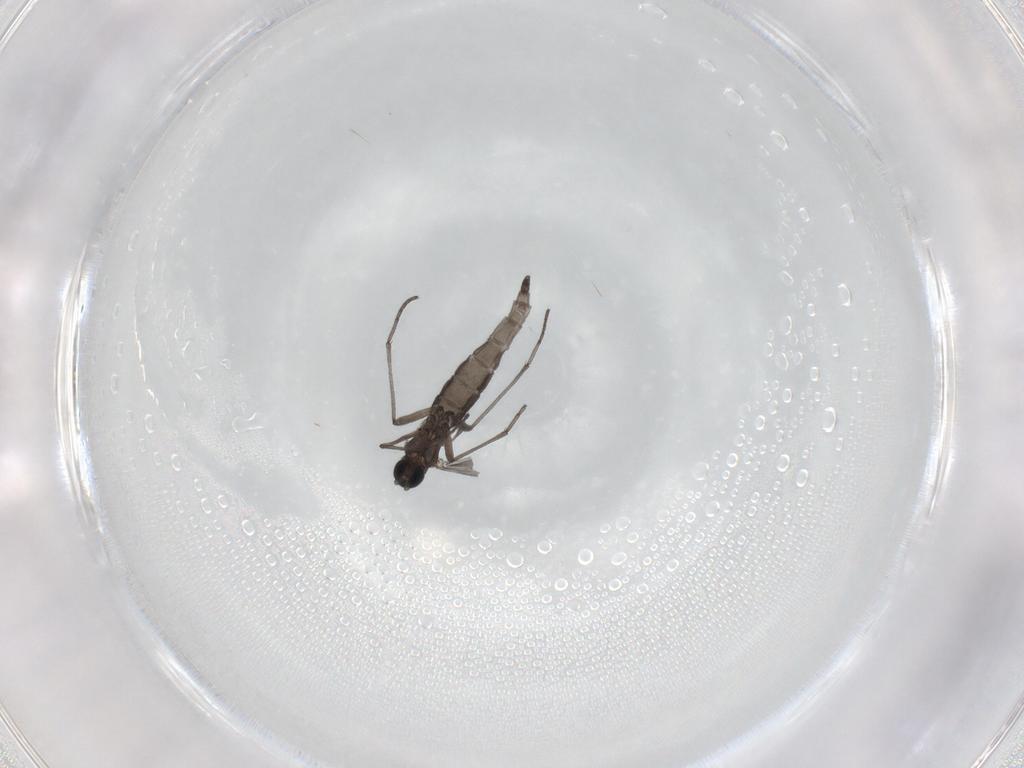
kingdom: Animalia
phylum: Arthropoda
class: Insecta
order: Diptera
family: Sciaridae
